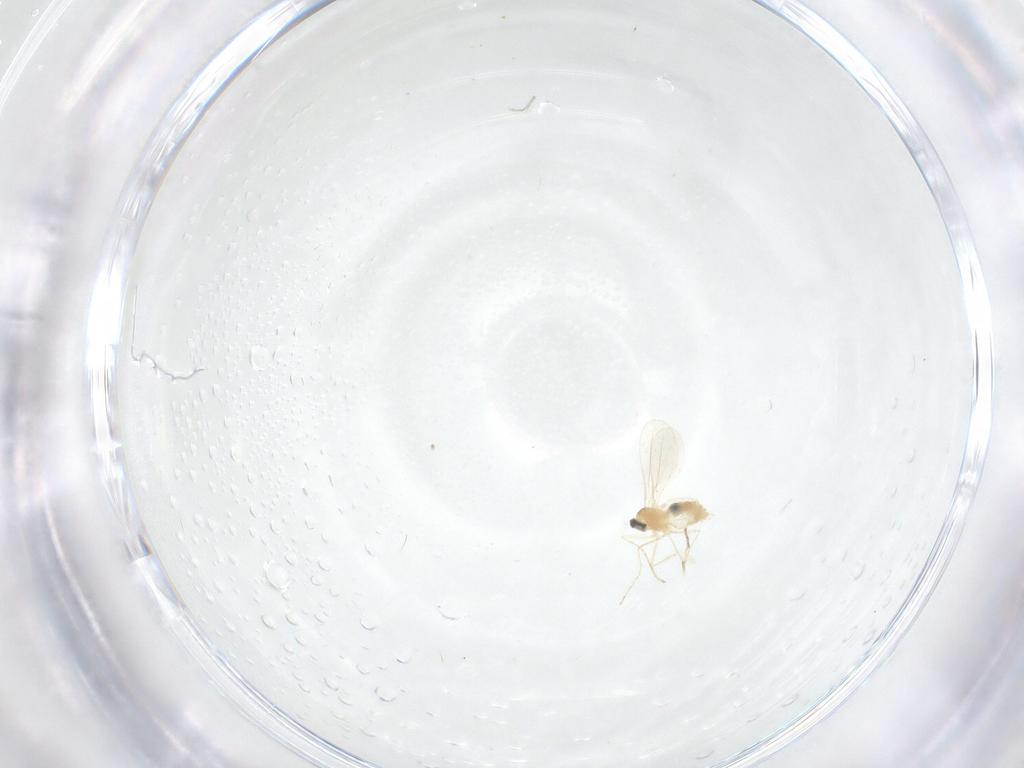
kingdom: Animalia
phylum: Arthropoda
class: Insecta
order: Diptera
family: Cecidomyiidae
